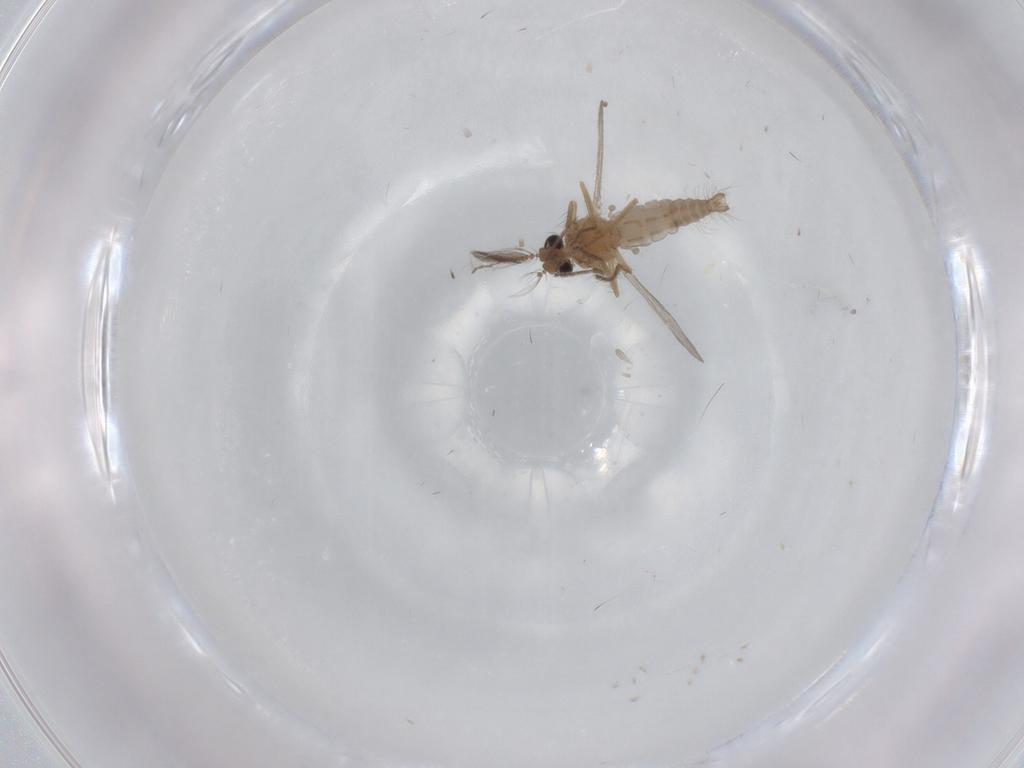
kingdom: Animalia
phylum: Arthropoda
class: Insecta
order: Diptera
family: Ceratopogonidae
